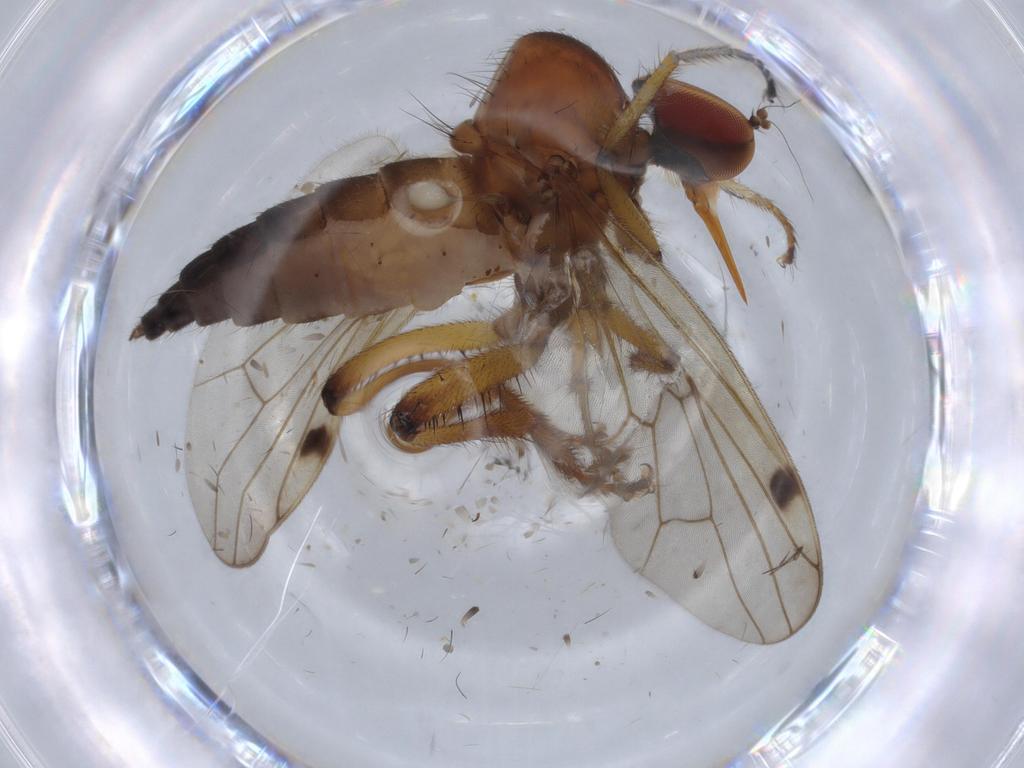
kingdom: Animalia
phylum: Arthropoda
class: Insecta
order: Diptera
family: Hybotidae
